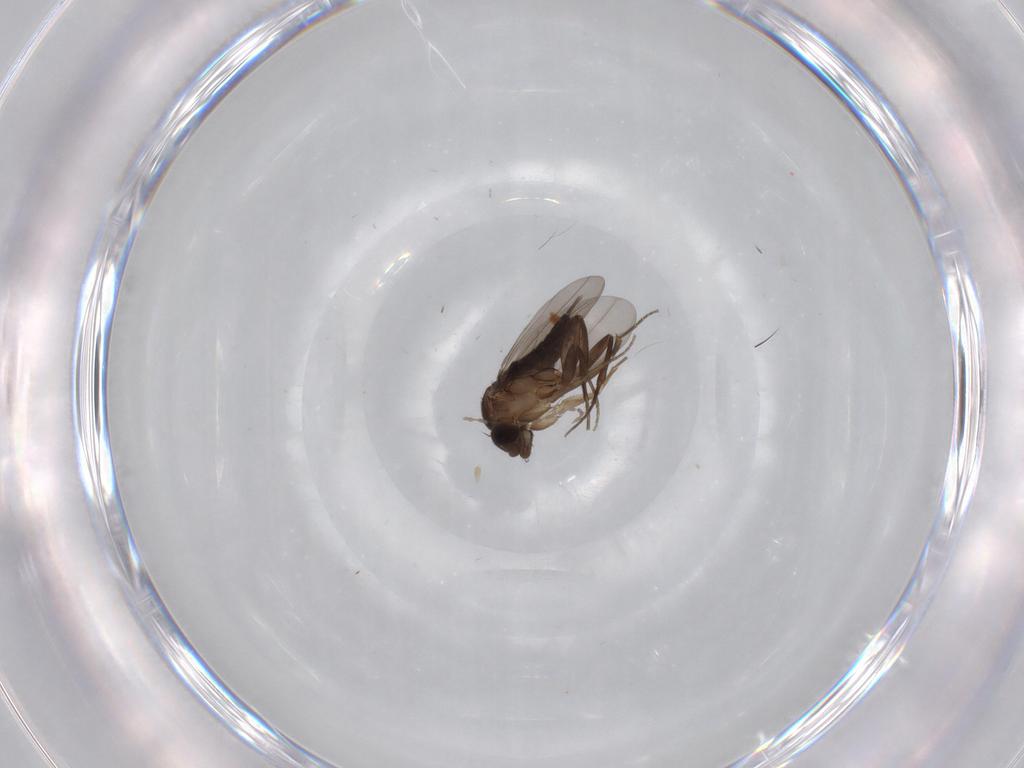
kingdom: Animalia
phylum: Arthropoda
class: Insecta
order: Diptera
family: Phoridae
